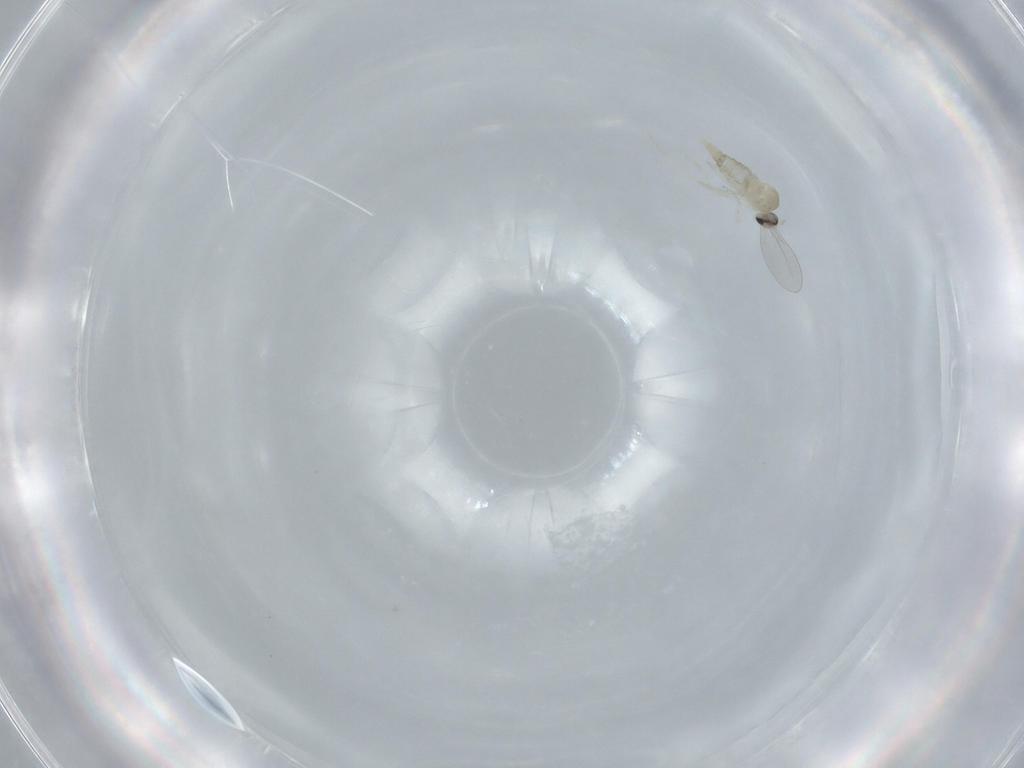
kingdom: Animalia
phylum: Arthropoda
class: Insecta
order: Diptera
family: Cecidomyiidae
